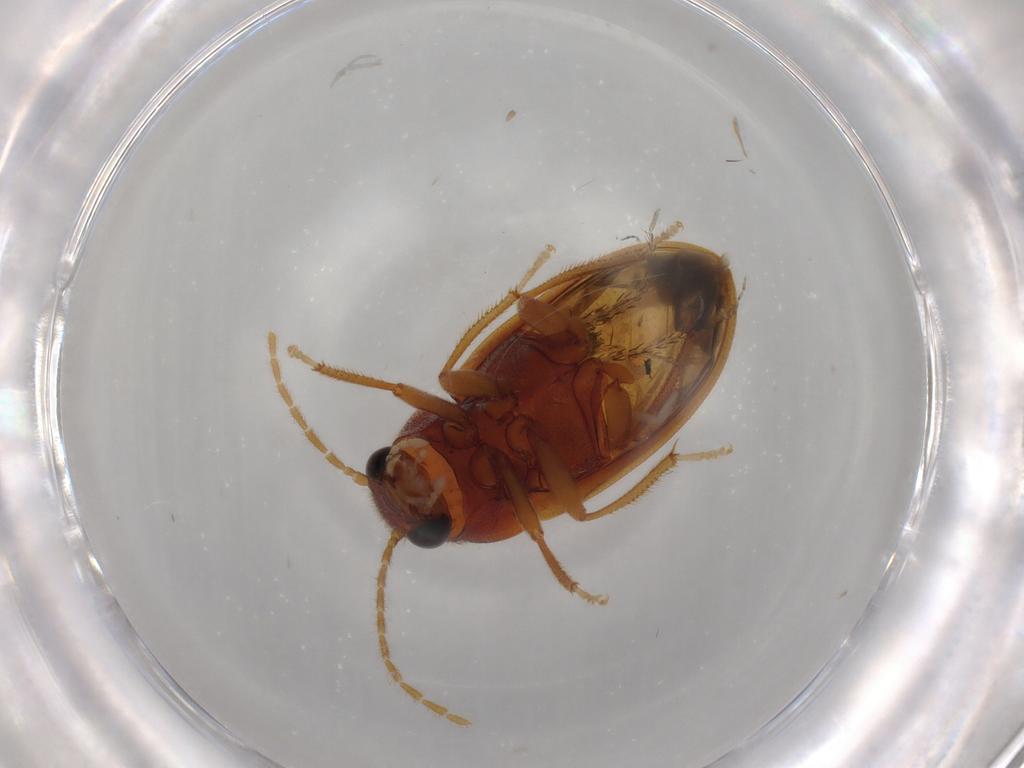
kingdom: Animalia
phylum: Arthropoda
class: Insecta
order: Coleoptera
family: Ptilodactylidae
